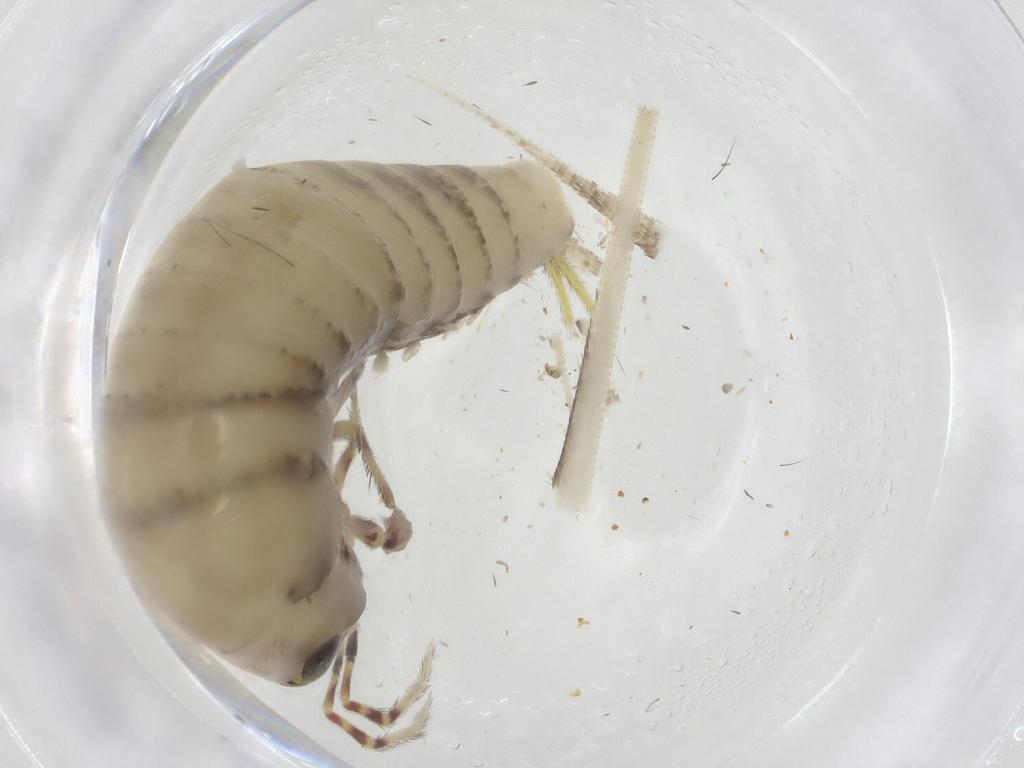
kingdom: Animalia
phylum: Arthropoda
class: Insecta
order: Archaeognatha
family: Meinertellidae
